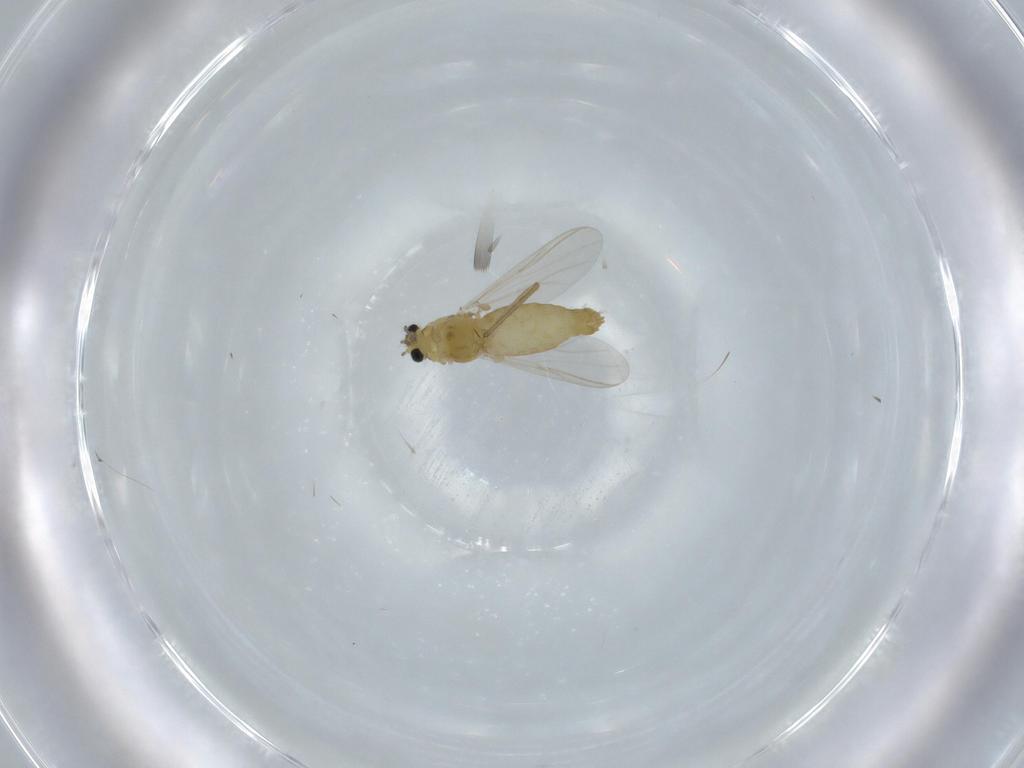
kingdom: Animalia
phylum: Arthropoda
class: Insecta
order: Diptera
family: Chironomidae
